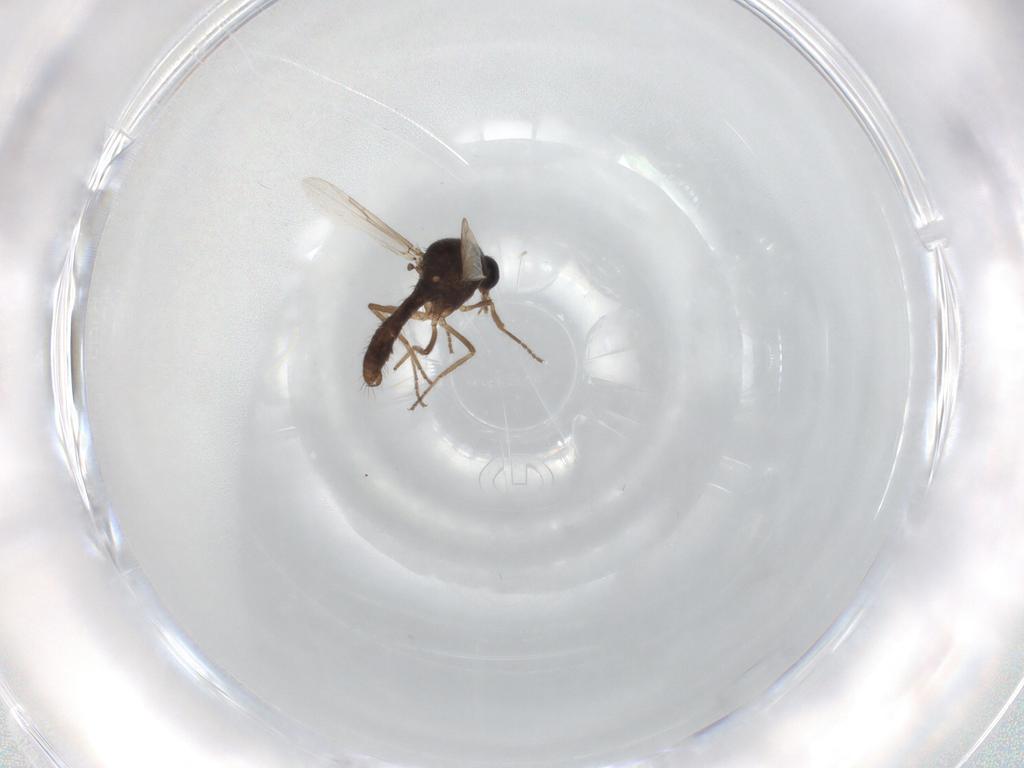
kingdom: Animalia
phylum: Arthropoda
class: Insecta
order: Diptera
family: Ceratopogonidae
